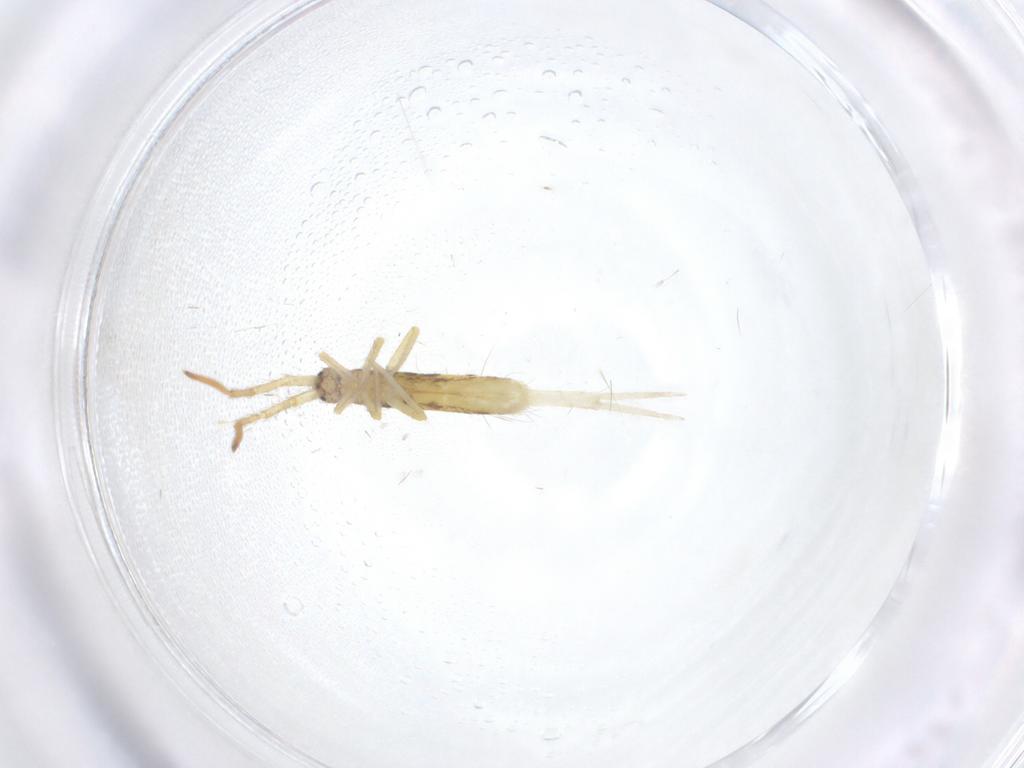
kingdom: Animalia
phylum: Arthropoda
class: Collembola
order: Entomobryomorpha
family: Entomobryidae
